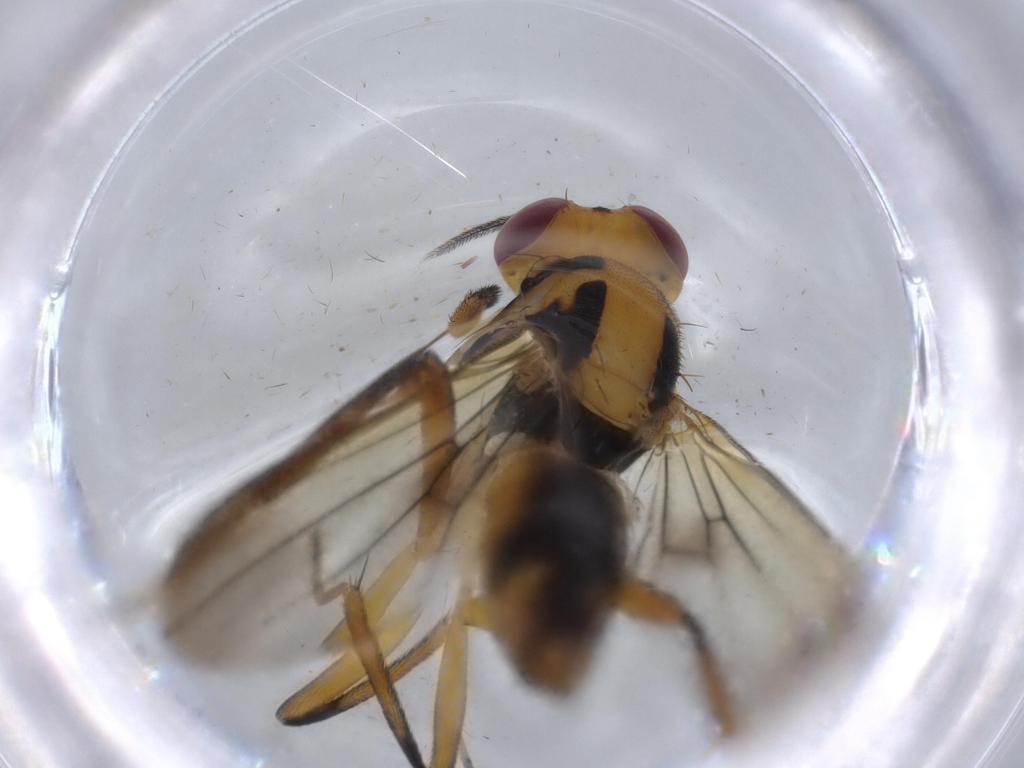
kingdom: Animalia
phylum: Arthropoda
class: Insecta
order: Diptera
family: Clusiidae
